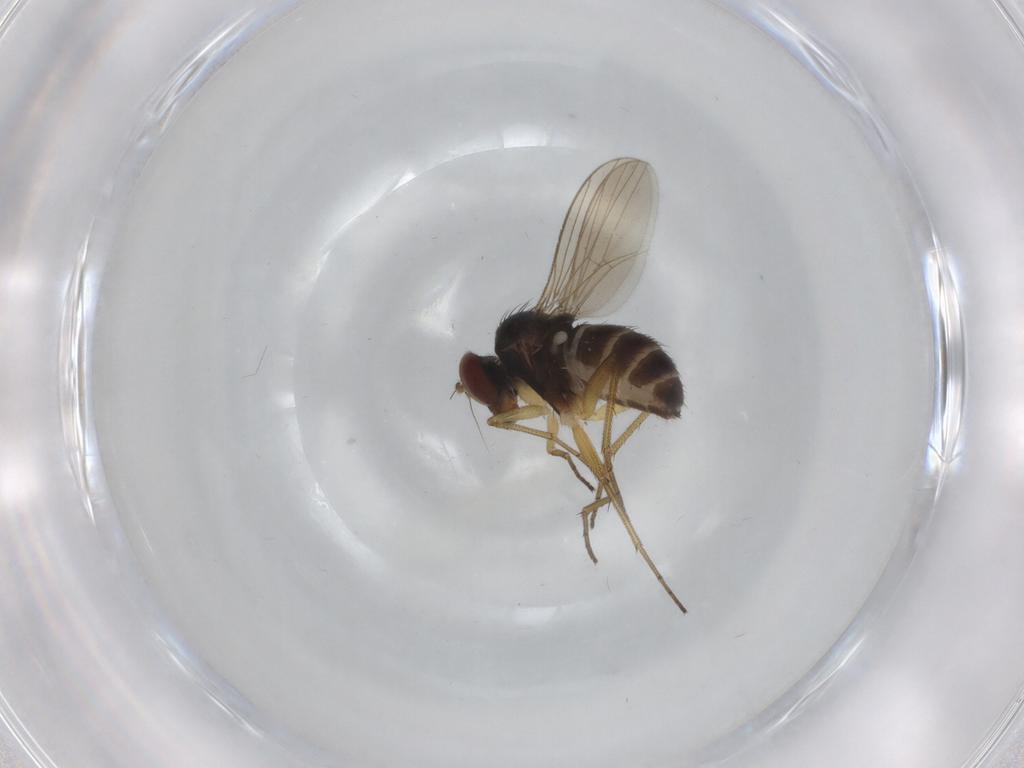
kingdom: Animalia
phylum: Arthropoda
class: Insecta
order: Diptera
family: Dolichopodidae
